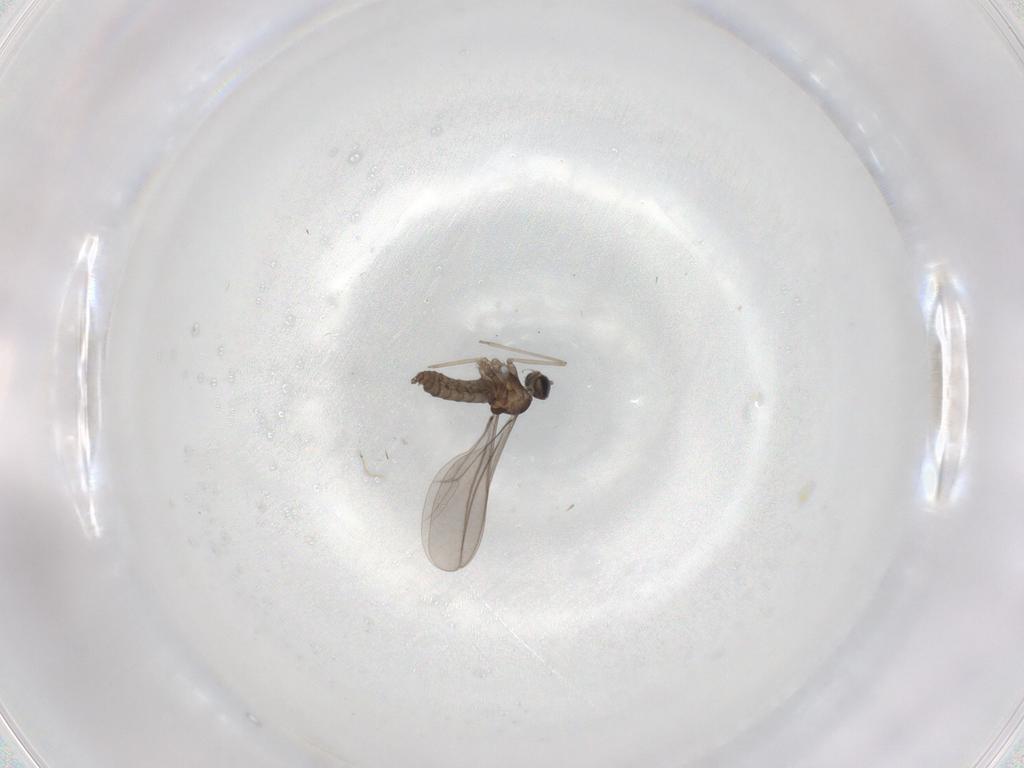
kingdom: Animalia
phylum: Arthropoda
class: Insecta
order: Diptera
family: Cecidomyiidae
